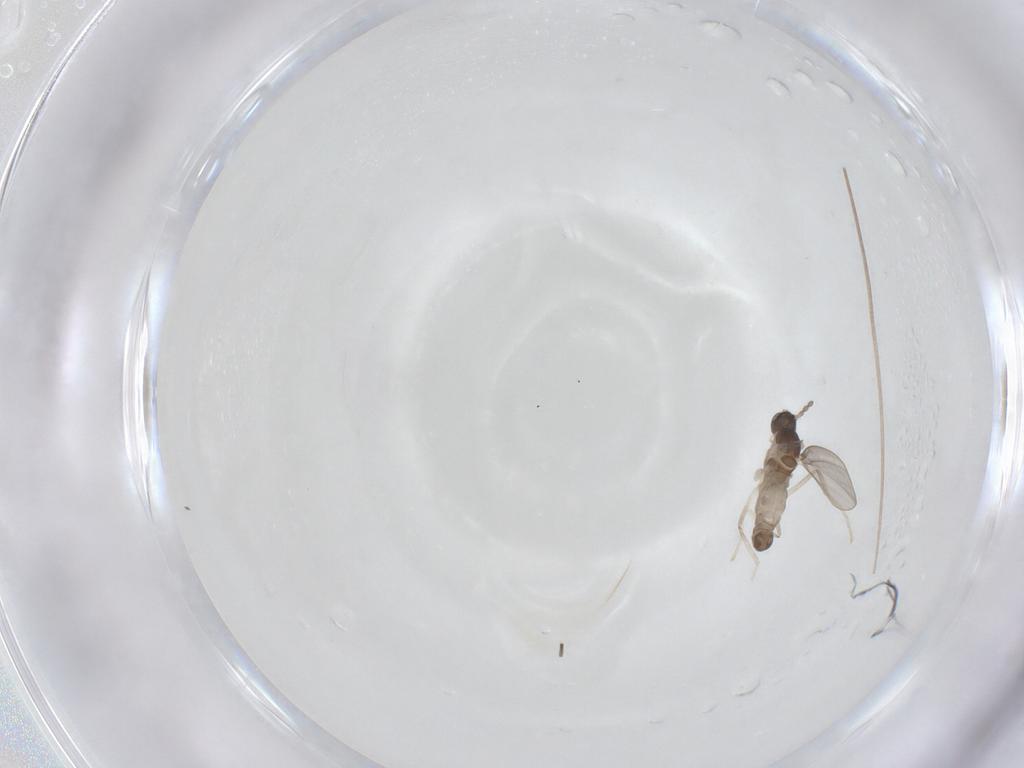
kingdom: Animalia
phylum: Arthropoda
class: Insecta
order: Diptera
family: Cecidomyiidae
